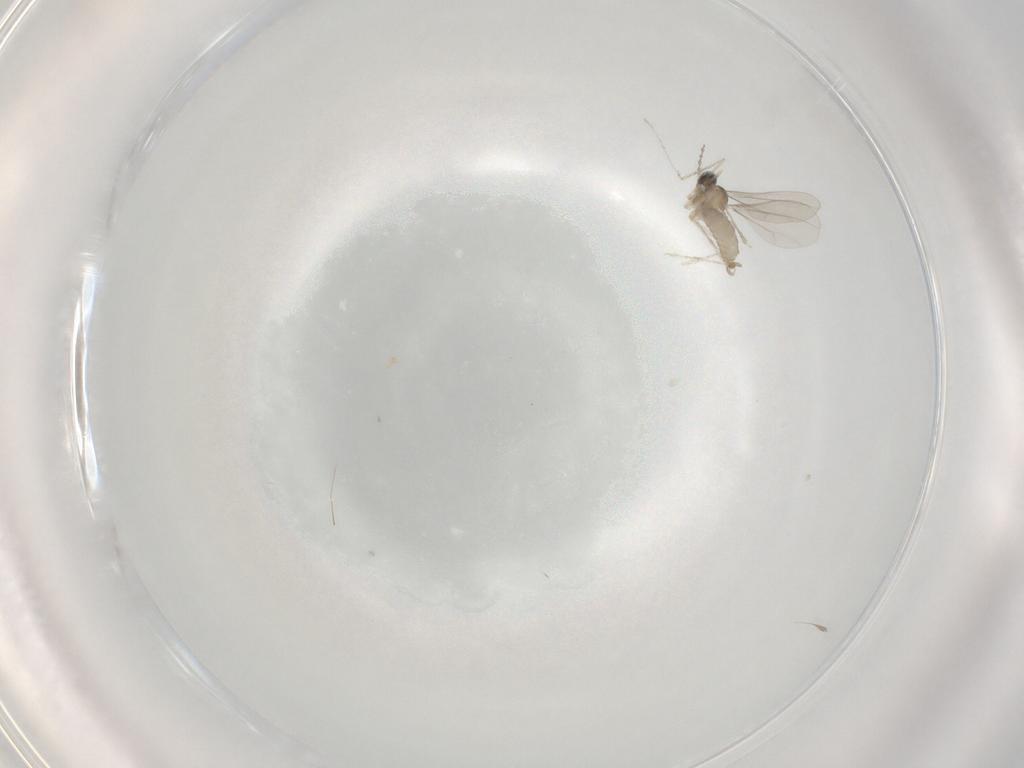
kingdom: Animalia
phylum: Arthropoda
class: Insecta
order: Diptera
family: Cecidomyiidae
